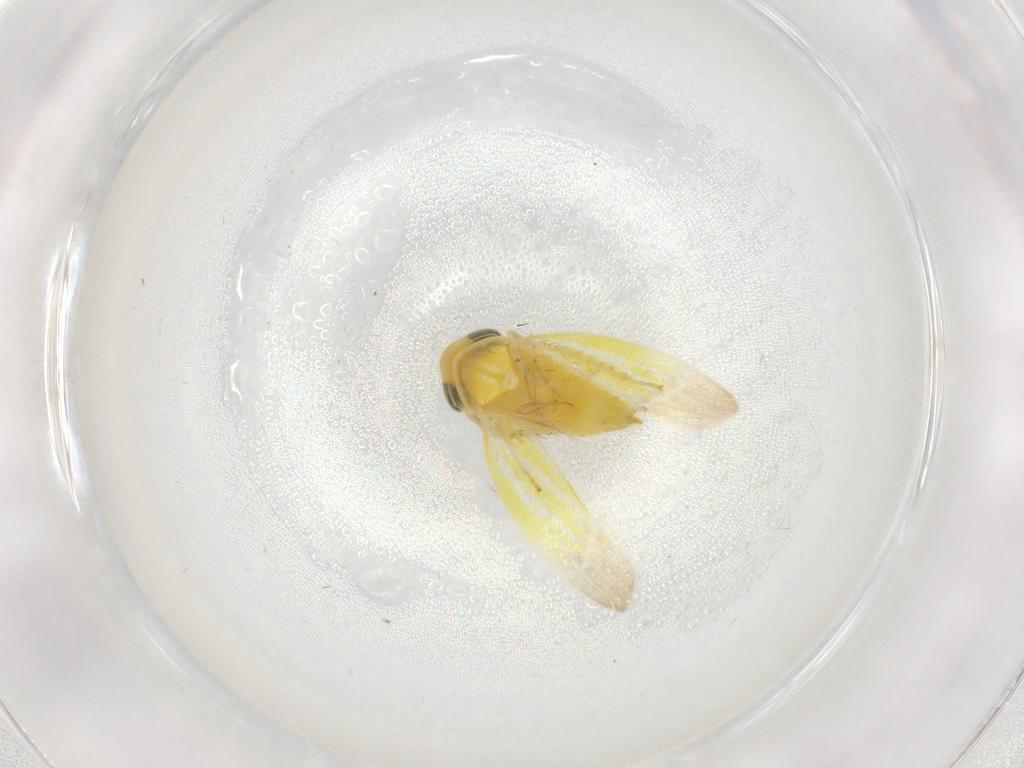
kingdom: Animalia
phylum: Arthropoda
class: Insecta
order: Hemiptera
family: Cicadellidae
